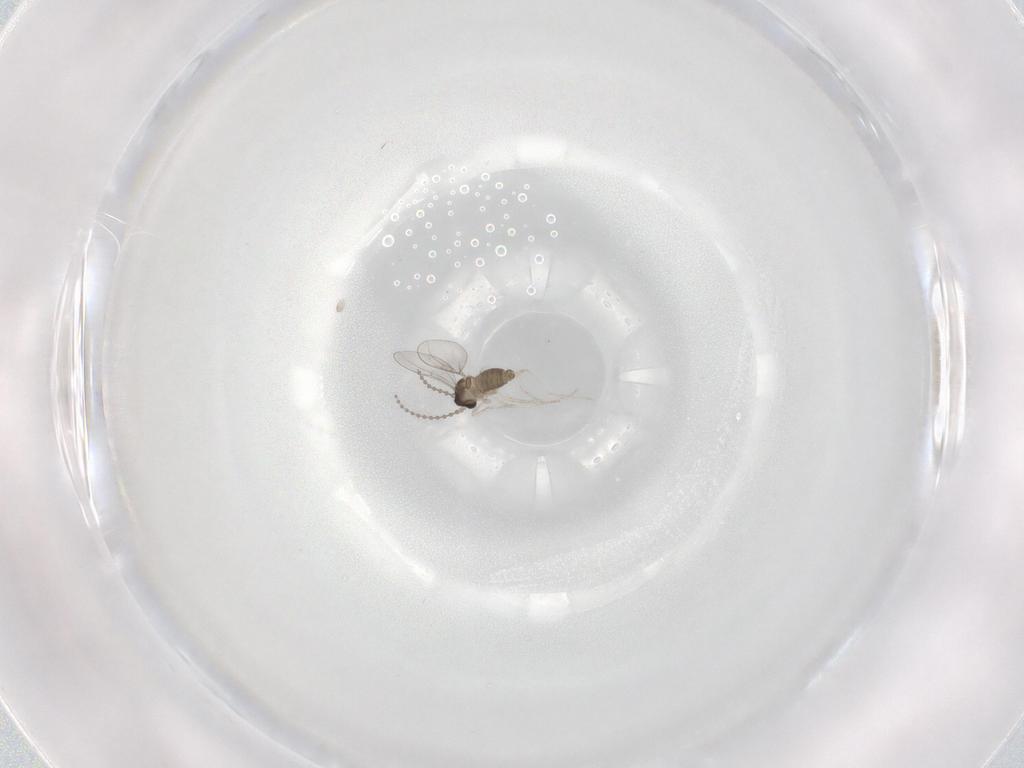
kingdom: Animalia
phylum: Arthropoda
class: Insecta
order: Diptera
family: Cecidomyiidae
